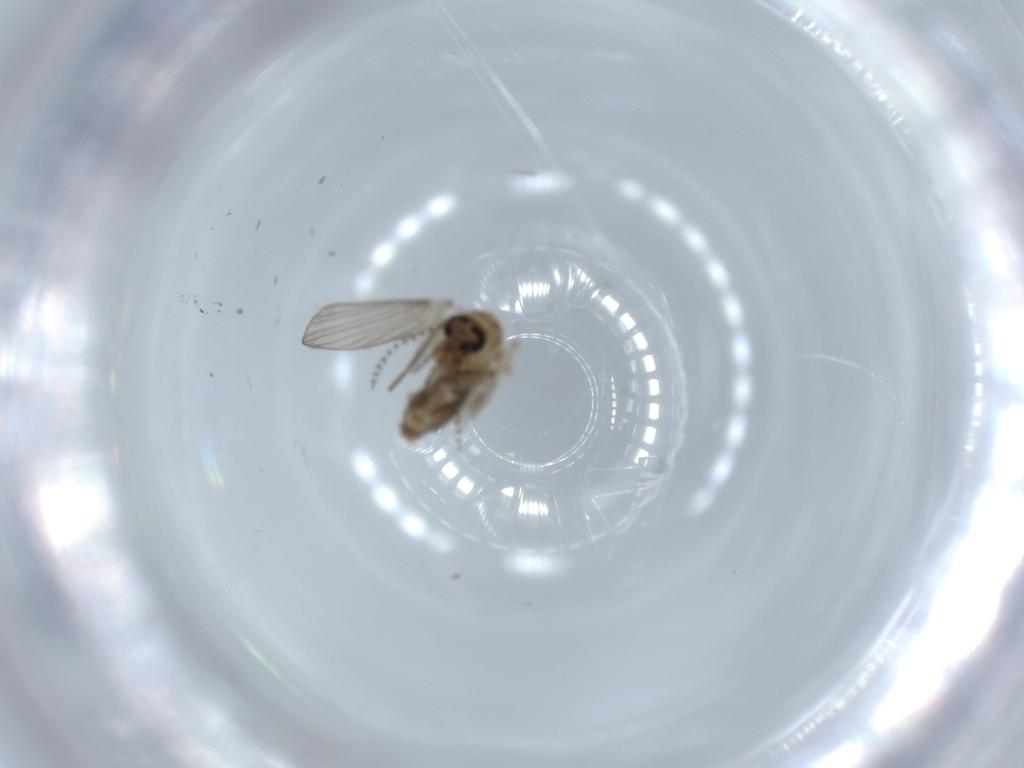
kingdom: Animalia
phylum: Arthropoda
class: Insecta
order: Diptera
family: Psychodidae
